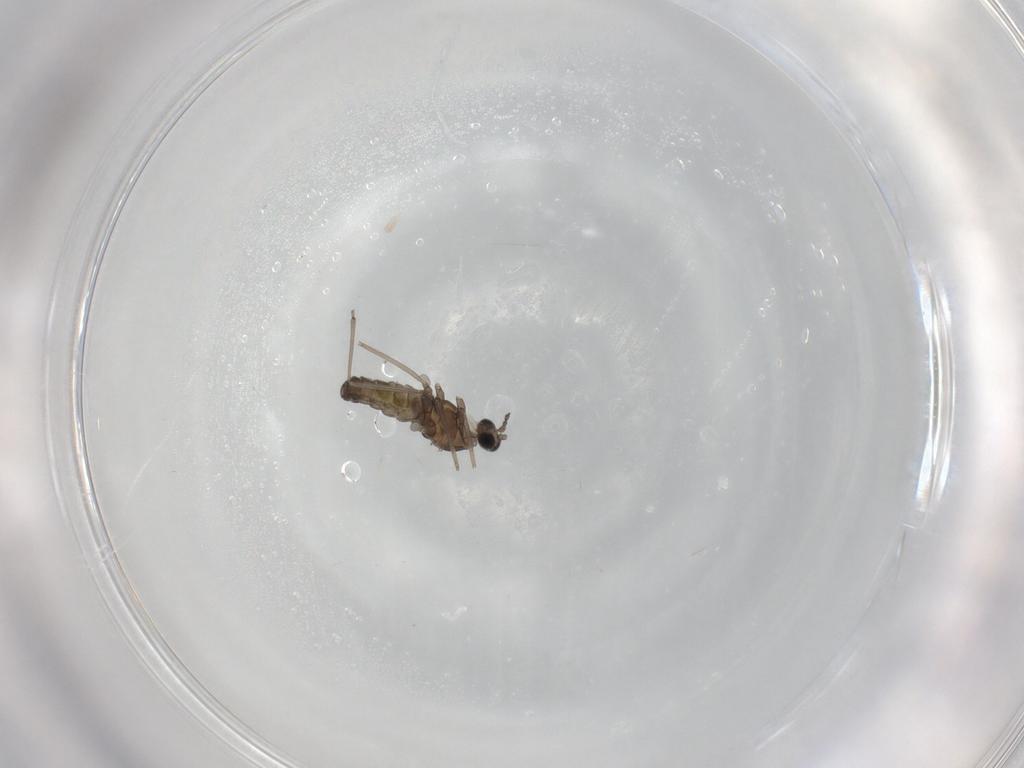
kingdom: Animalia
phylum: Arthropoda
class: Insecta
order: Diptera
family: Cecidomyiidae
